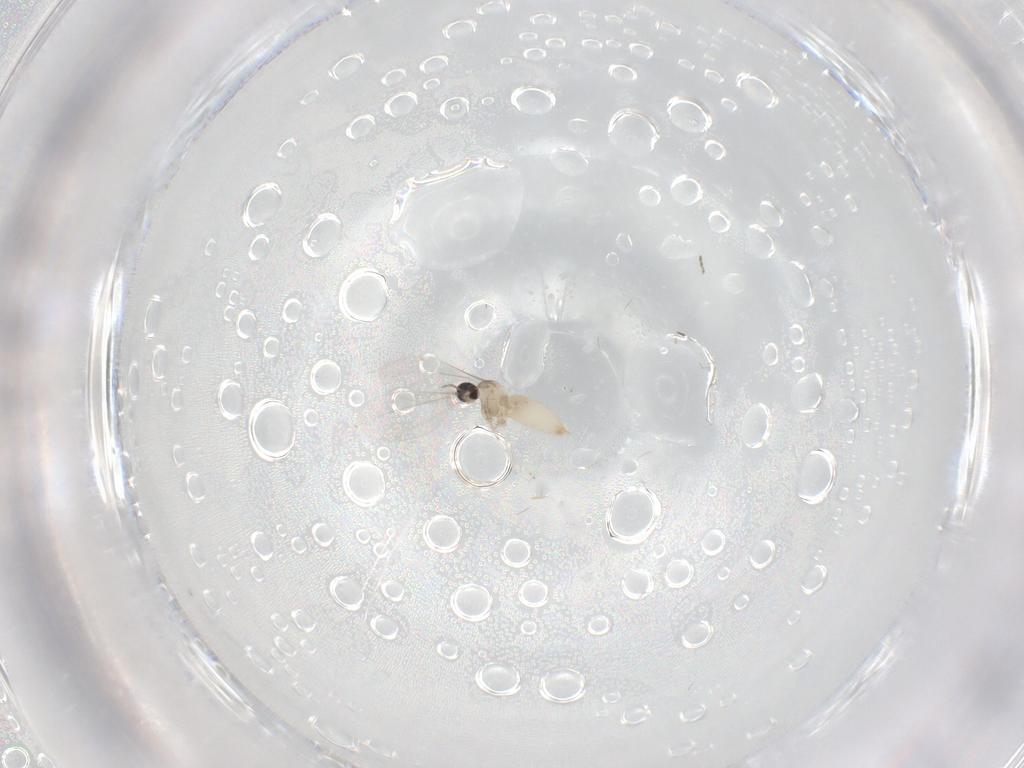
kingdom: Animalia
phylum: Arthropoda
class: Insecta
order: Diptera
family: Cecidomyiidae
